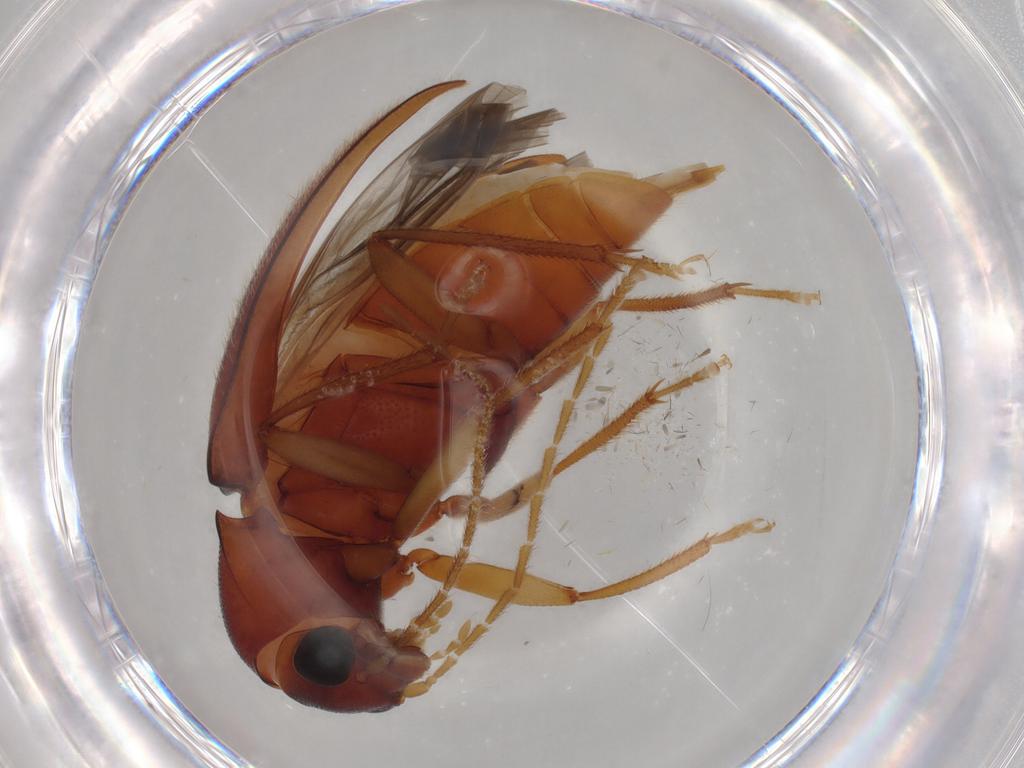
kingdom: Animalia
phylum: Arthropoda
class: Insecta
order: Coleoptera
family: Ptilodactylidae
